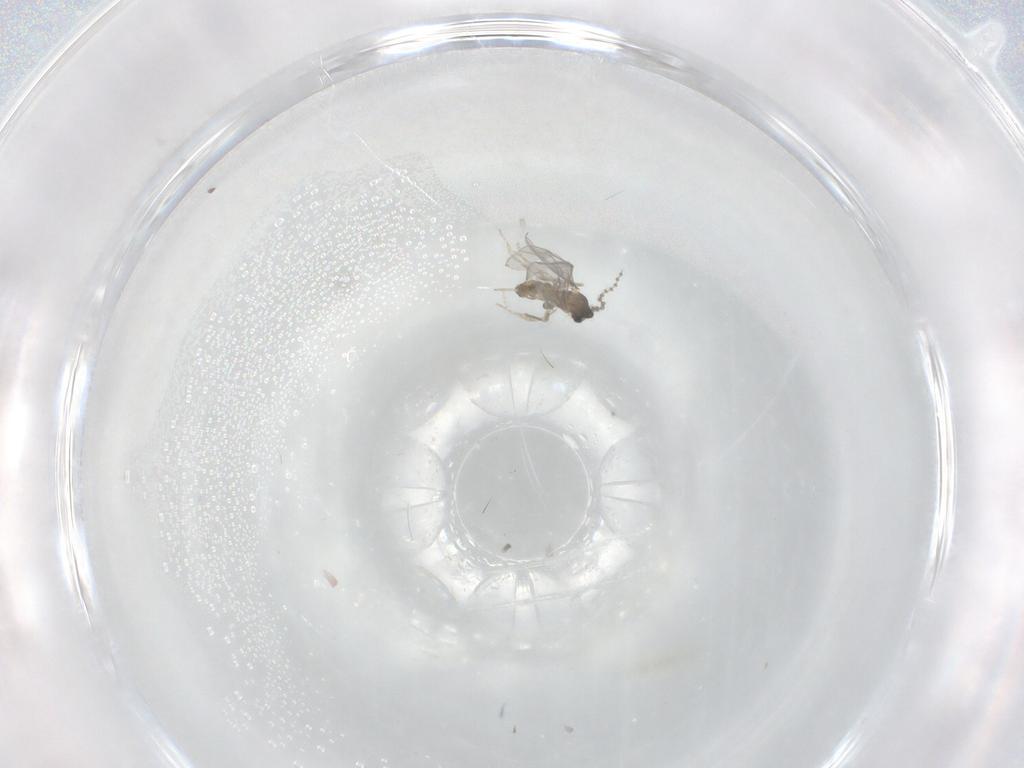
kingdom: Animalia
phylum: Arthropoda
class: Insecta
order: Diptera
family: Cecidomyiidae
